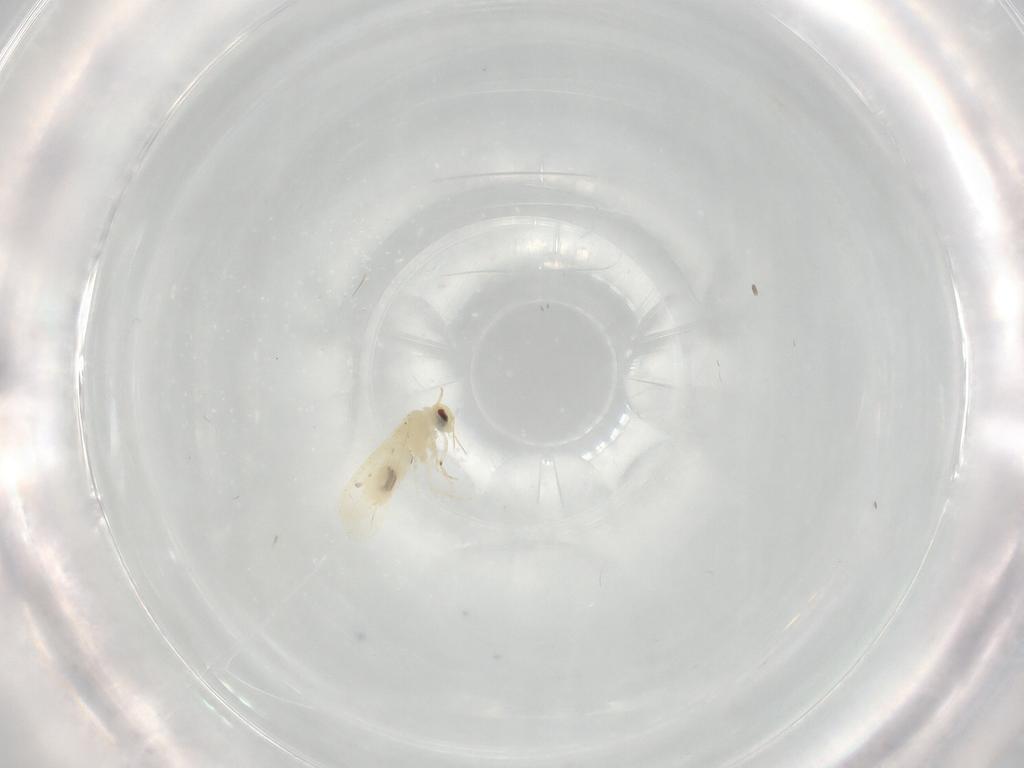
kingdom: Animalia
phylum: Arthropoda
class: Insecta
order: Hemiptera
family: Aleyrodidae
